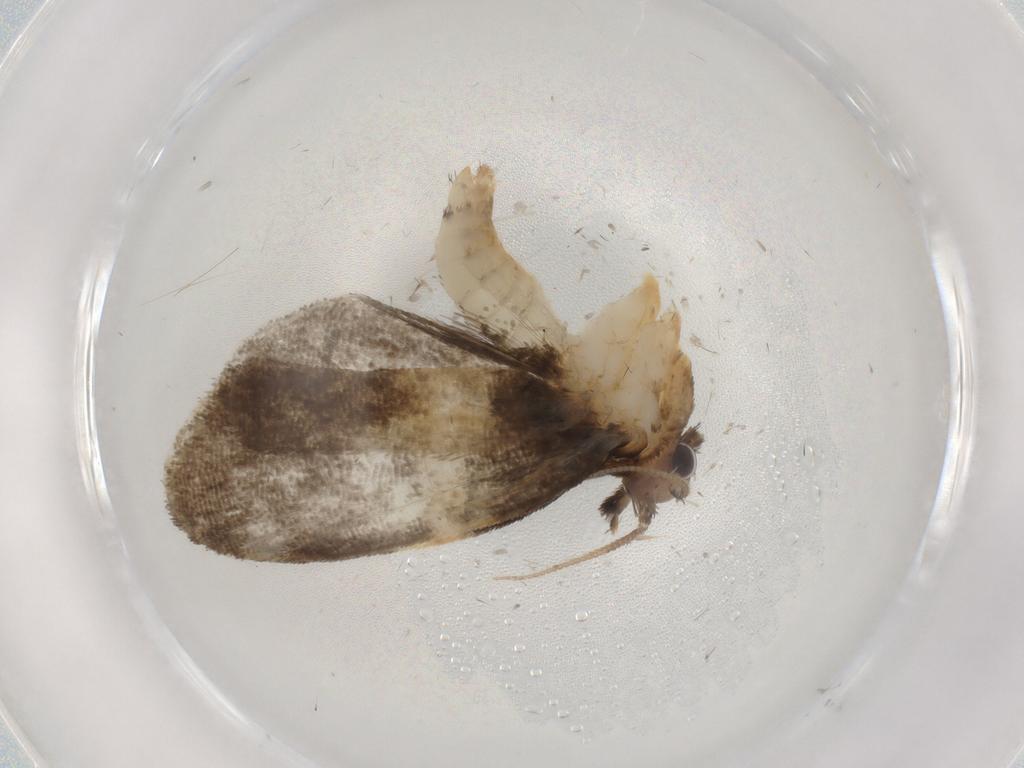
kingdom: Animalia
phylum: Arthropoda
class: Insecta
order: Lepidoptera
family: Psychidae
